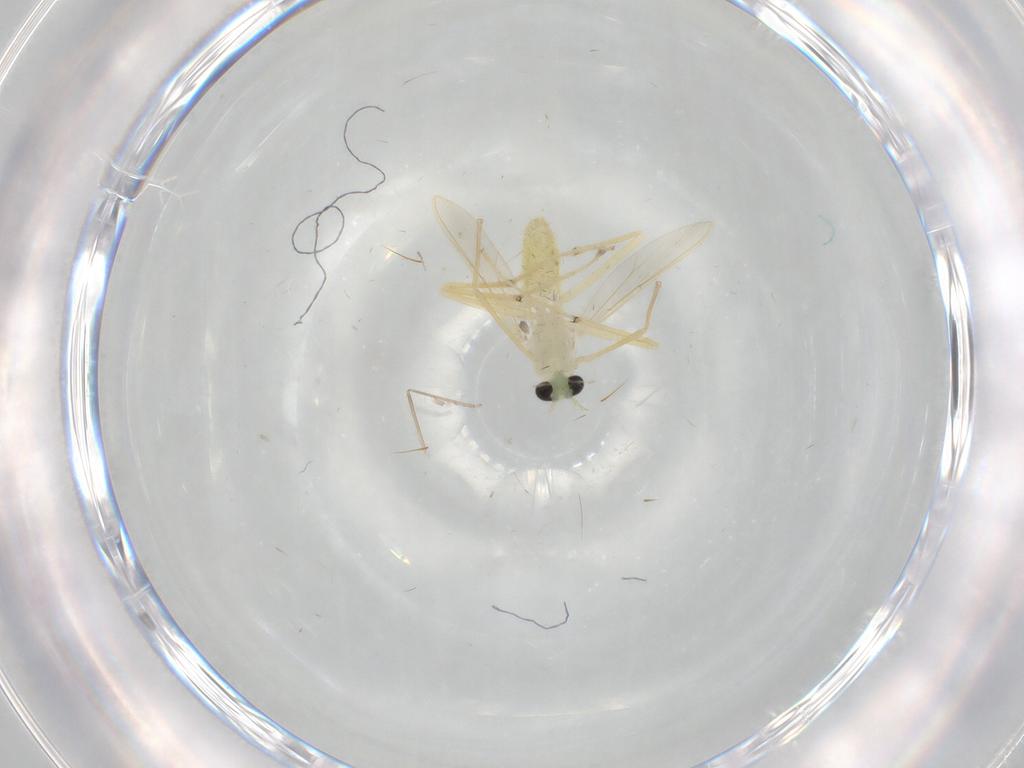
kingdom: Animalia
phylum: Arthropoda
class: Insecta
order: Diptera
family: Chironomidae
